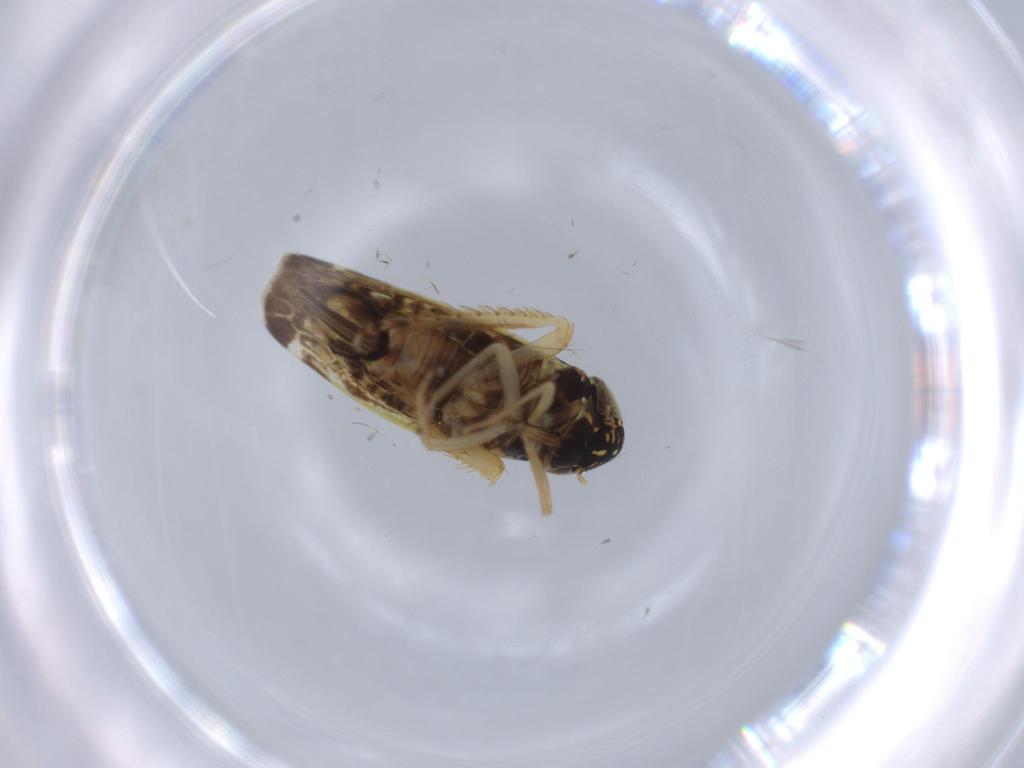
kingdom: Animalia
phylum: Arthropoda
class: Insecta
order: Hemiptera
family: Cicadellidae
